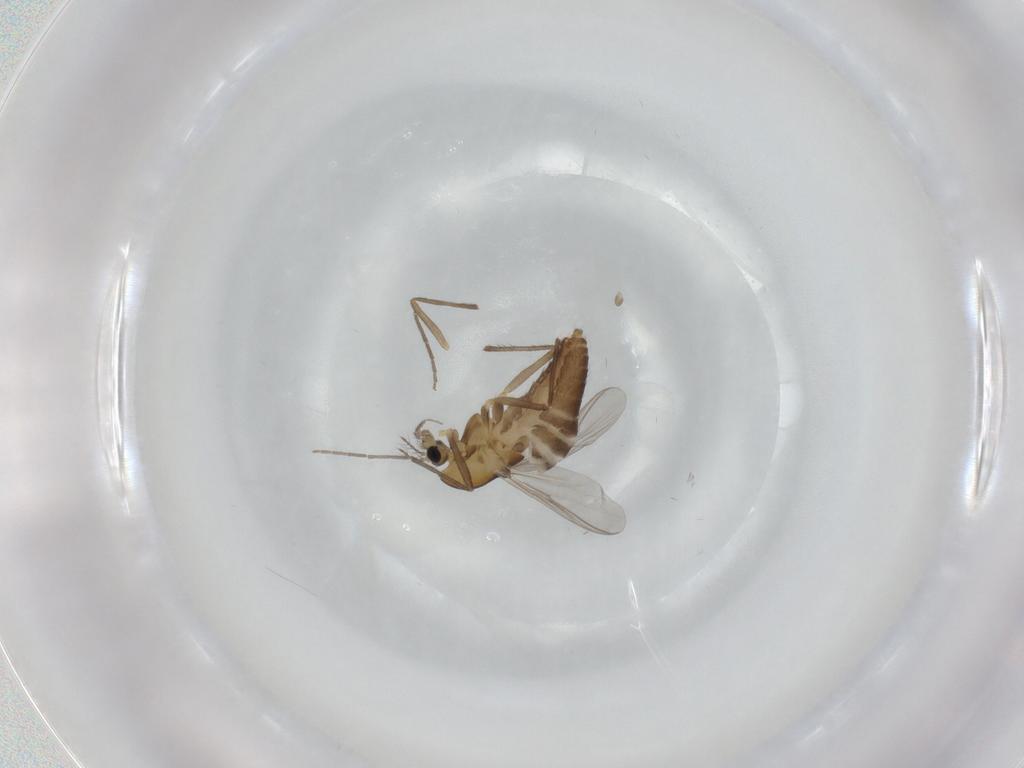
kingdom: Animalia
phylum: Arthropoda
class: Insecta
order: Diptera
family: Chironomidae
